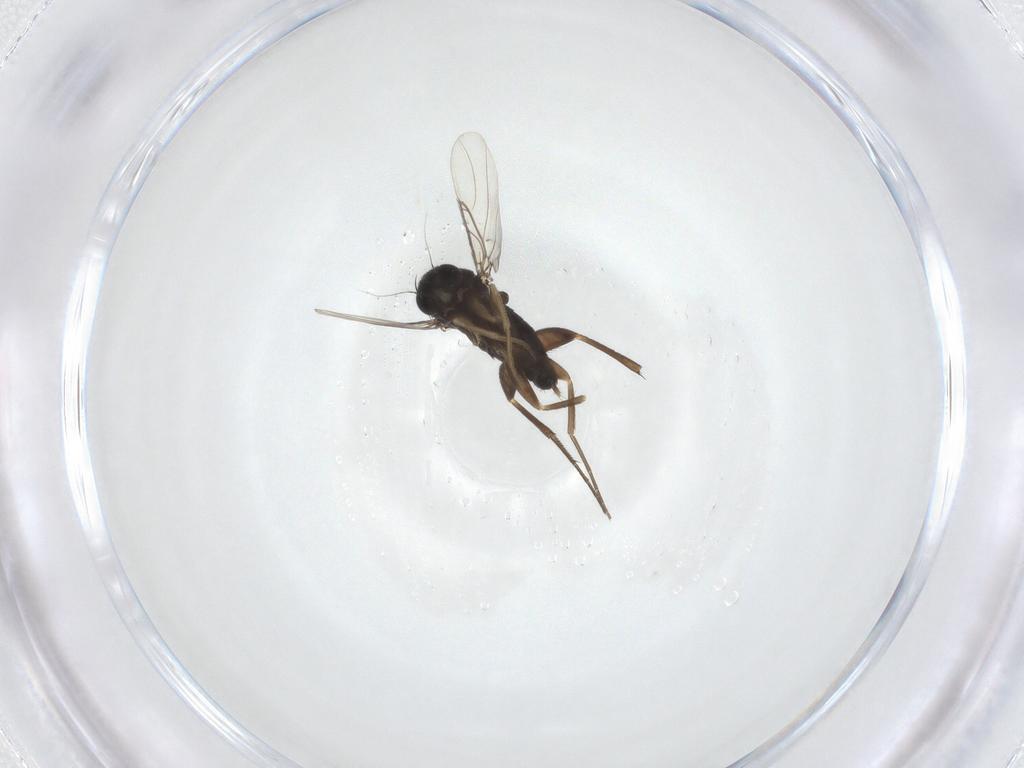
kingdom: Animalia
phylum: Arthropoda
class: Insecta
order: Diptera
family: Phoridae
